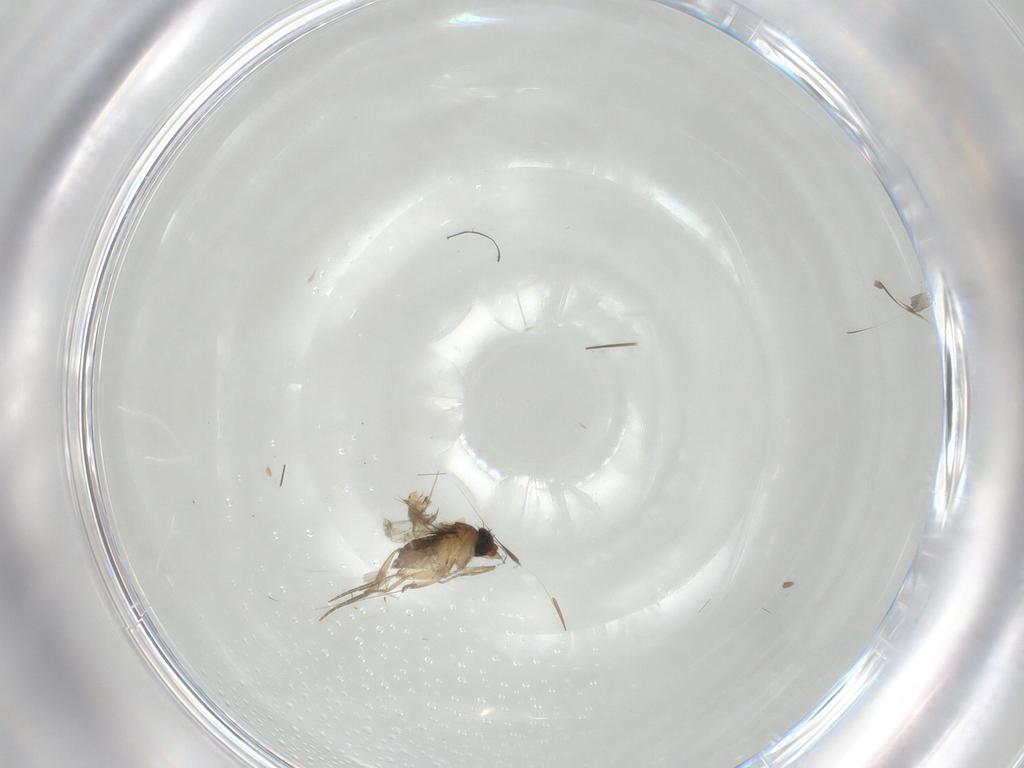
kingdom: Animalia
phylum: Arthropoda
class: Insecta
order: Diptera
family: Phoridae
